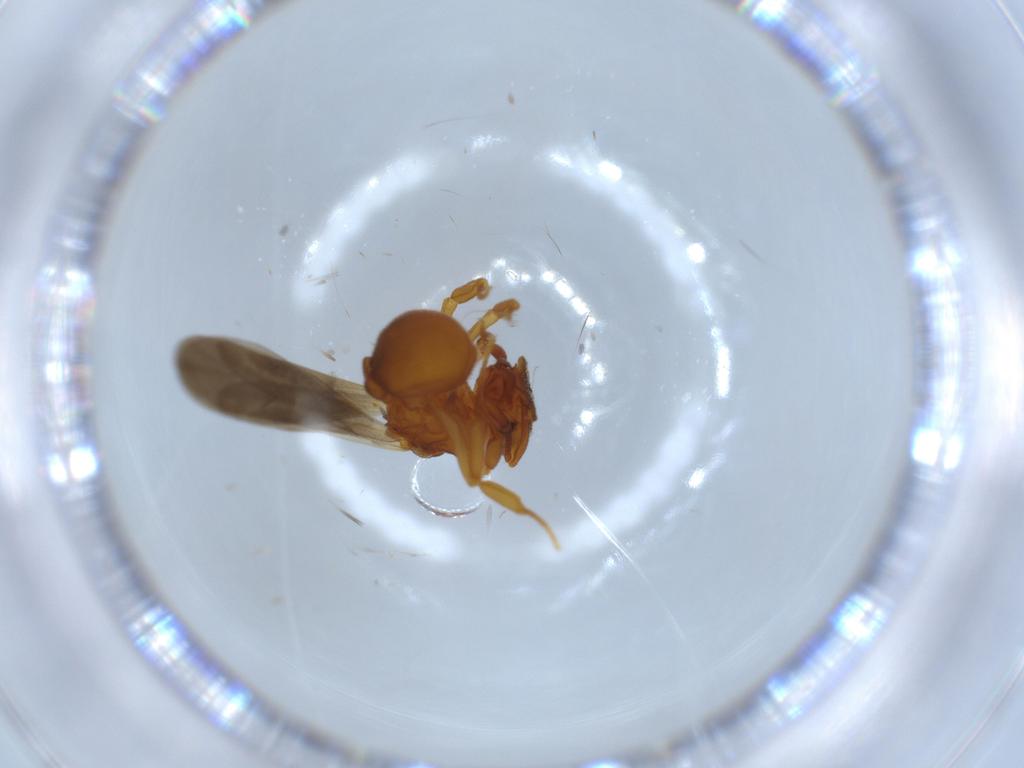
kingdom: Animalia
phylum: Arthropoda
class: Insecta
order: Hymenoptera
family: Formicidae
